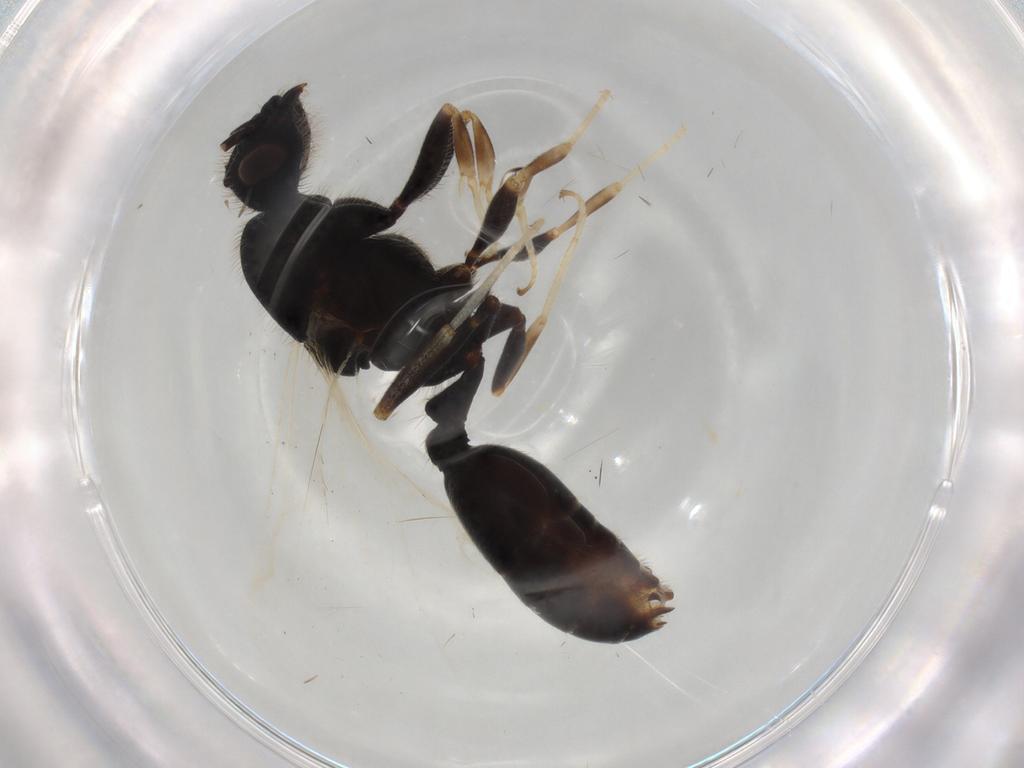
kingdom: Animalia
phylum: Arthropoda
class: Insecta
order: Hymenoptera
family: Formicidae
